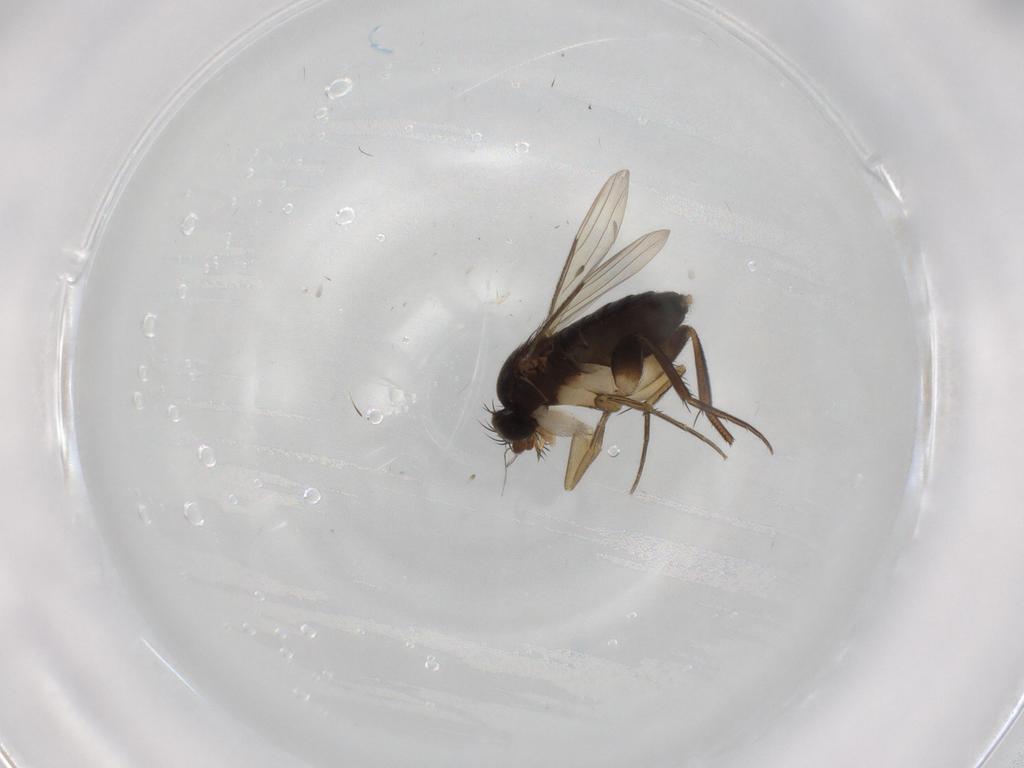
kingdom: Animalia
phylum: Arthropoda
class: Insecta
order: Diptera
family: Phoridae
